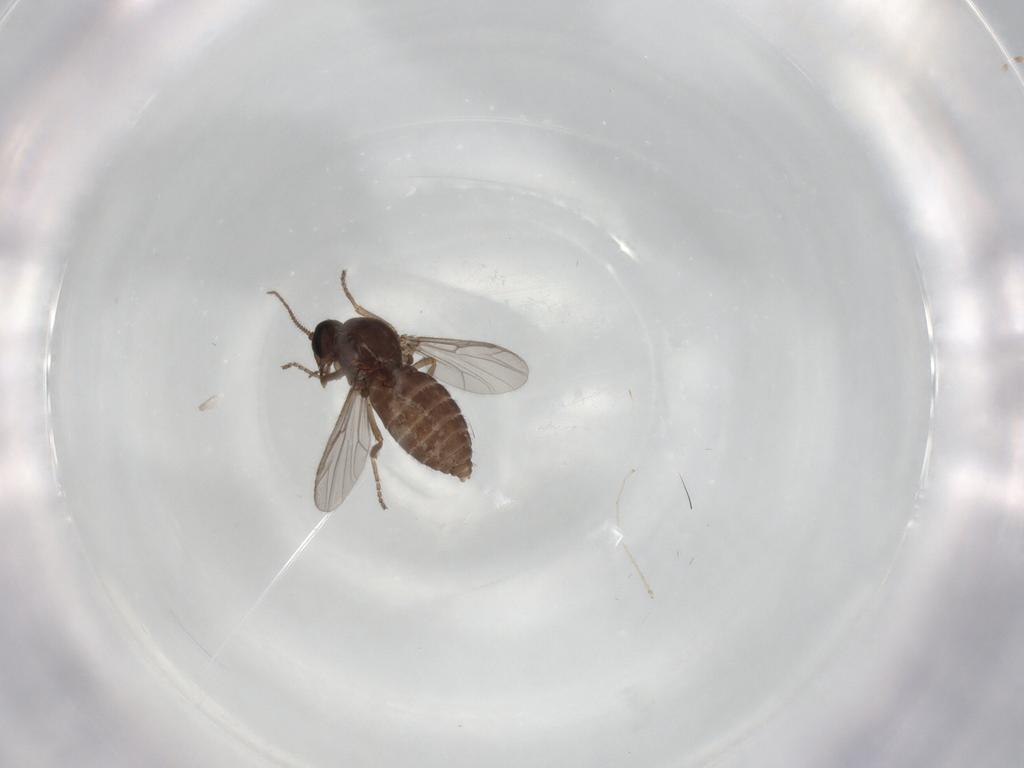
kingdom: Animalia
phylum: Arthropoda
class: Insecta
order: Diptera
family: Ceratopogonidae
